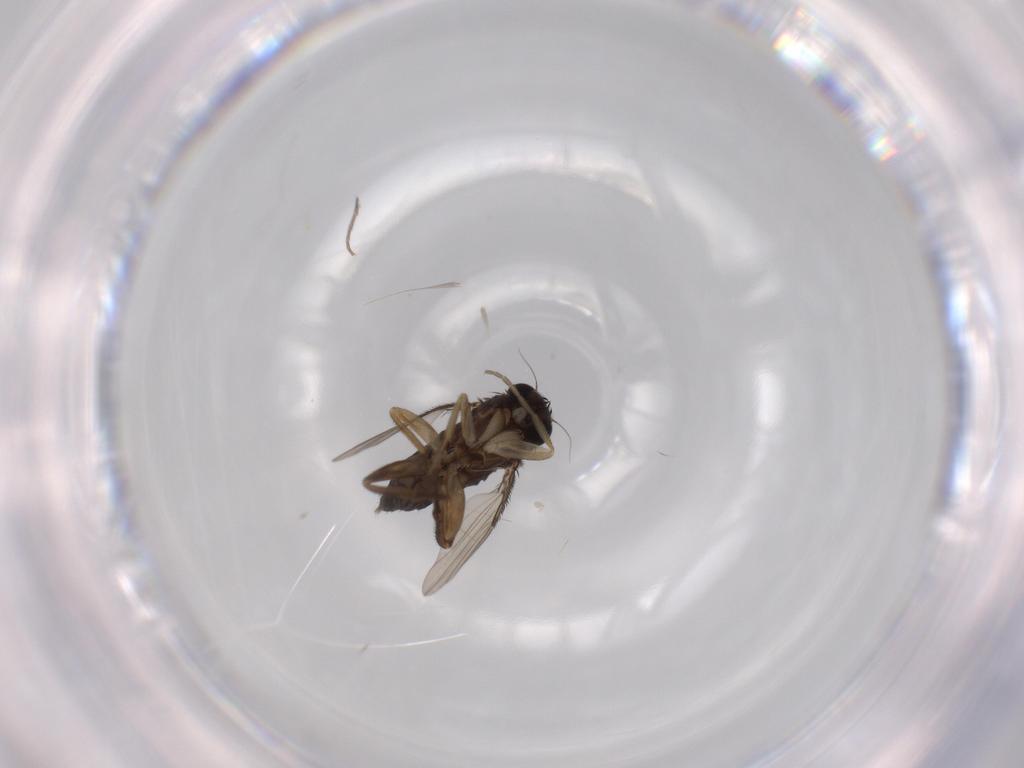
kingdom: Animalia
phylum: Arthropoda
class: Insecta
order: Diptera
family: Phoridae
